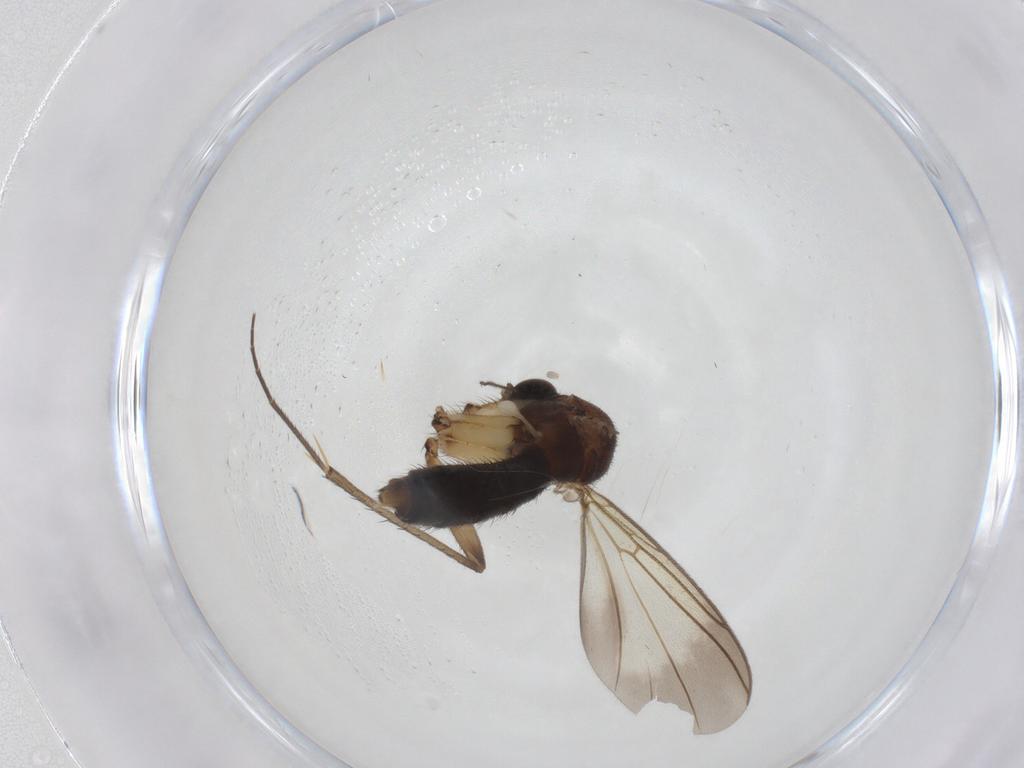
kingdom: Animalia
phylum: Arthropoda
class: Insecta
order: Diptera
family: Mycetophilidae
